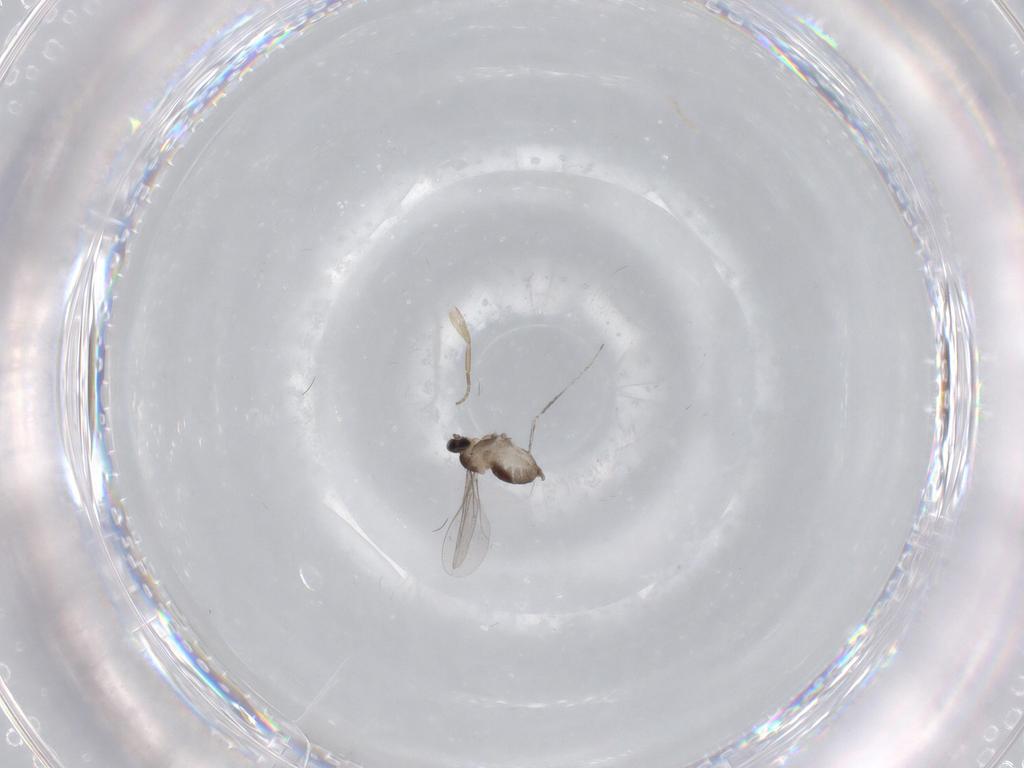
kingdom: Animalia
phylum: Arthropoda
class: Insecta
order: Diptera
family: Cecidomyiidae
